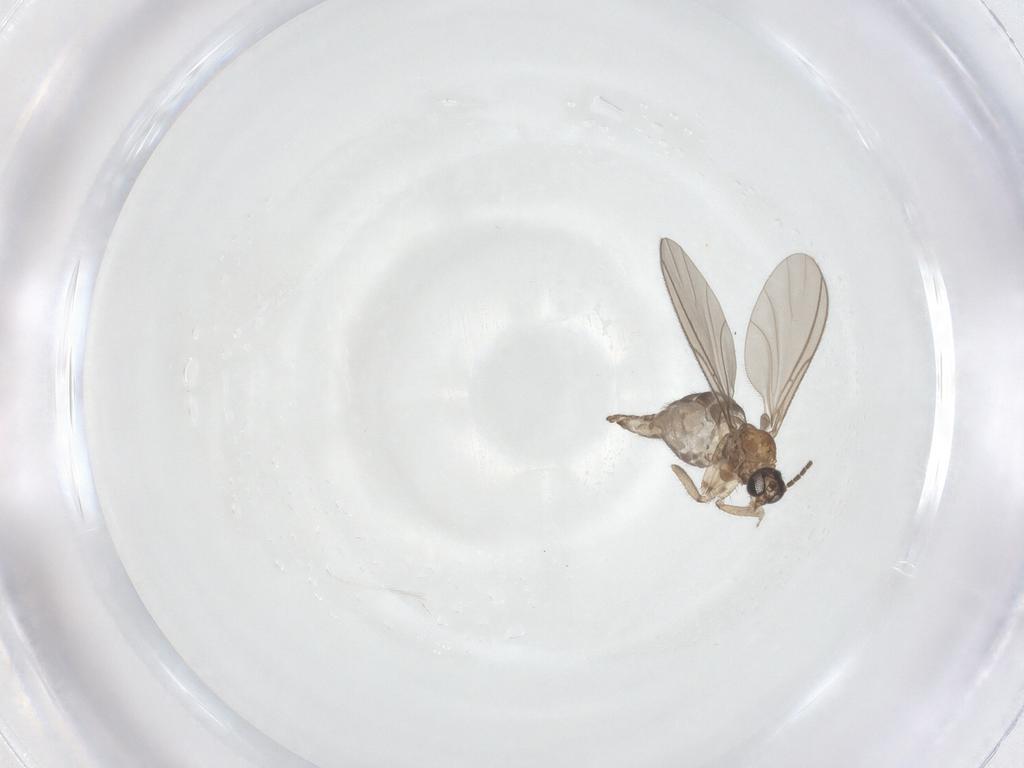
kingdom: Animalia
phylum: Arthropoda
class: Insecta
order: Diptera
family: Sciaridae
